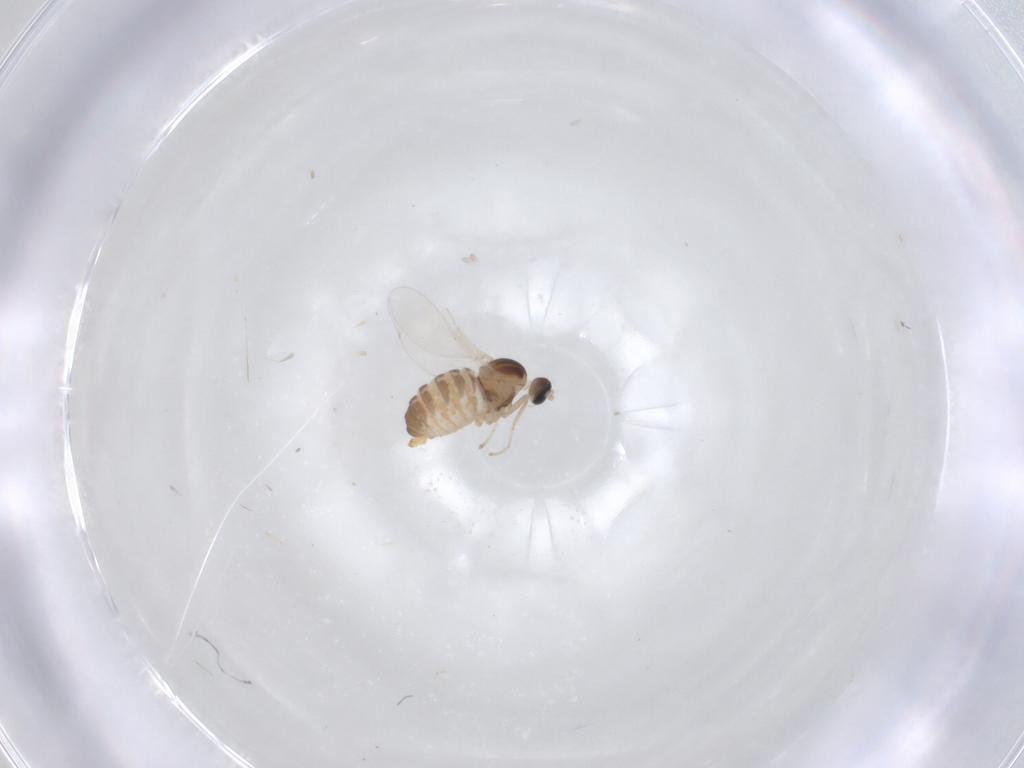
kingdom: Animalia
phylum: Arthropoda
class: Insecta
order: Diptera
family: Cecidomyiidae
